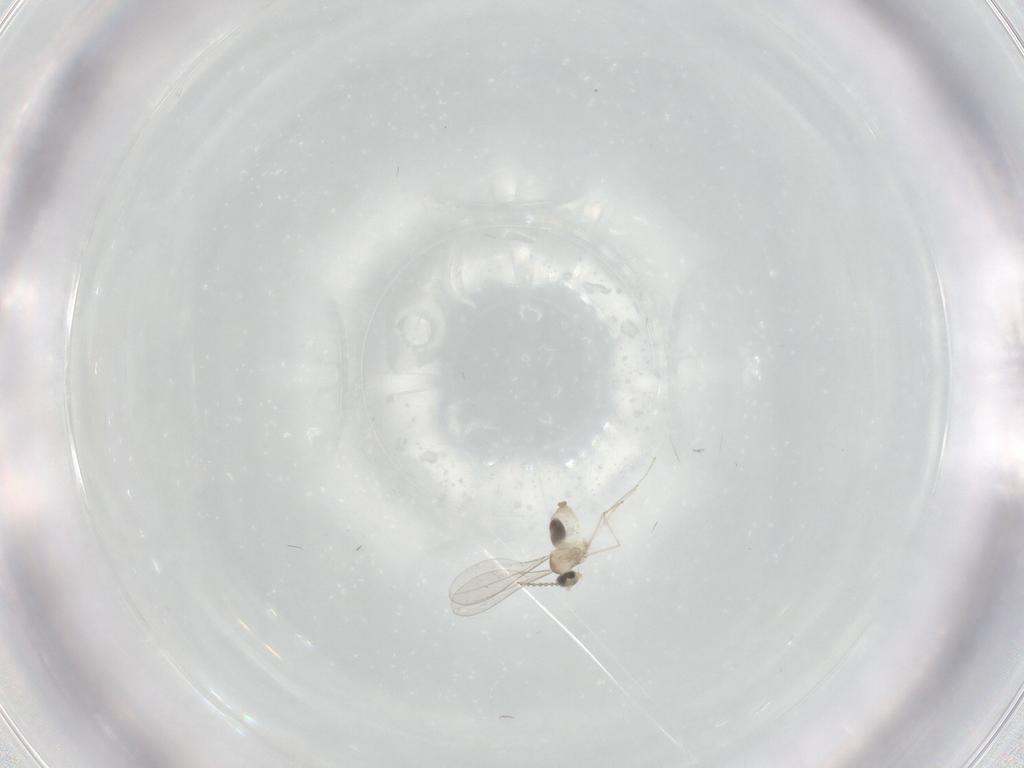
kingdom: Animalia
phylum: Arthropoda
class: Insecta
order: Diptera
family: Cecidomyiidae
